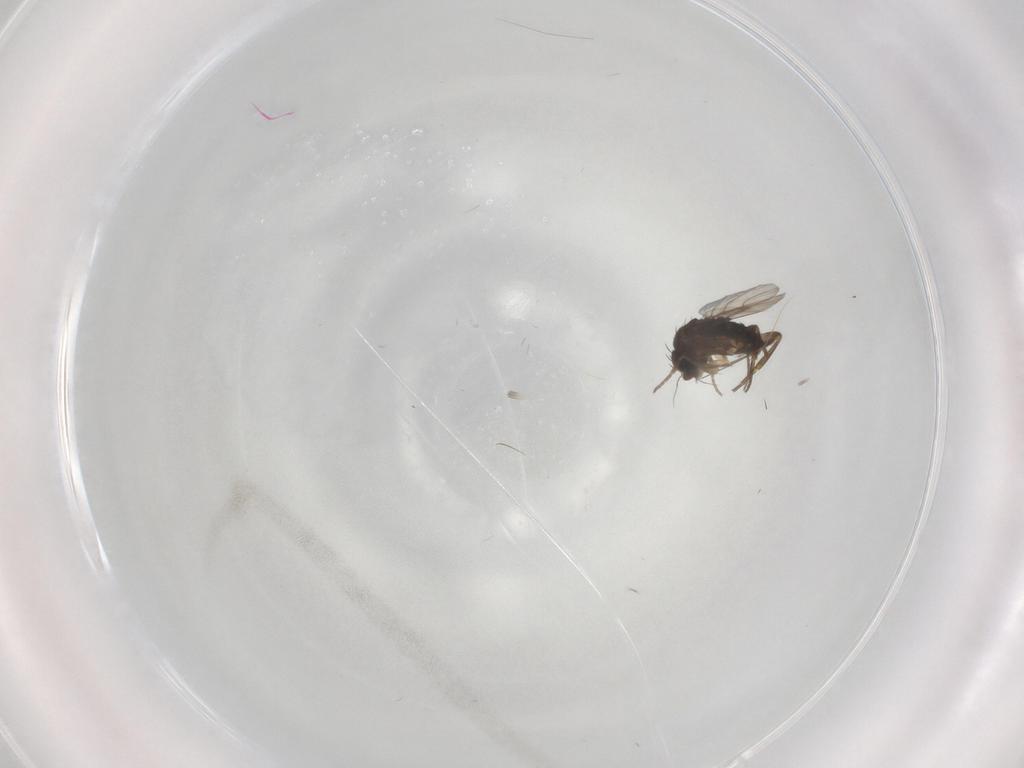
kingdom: Animalia
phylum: Arthropoda
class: Insecta
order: Diptera
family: Phoridae
